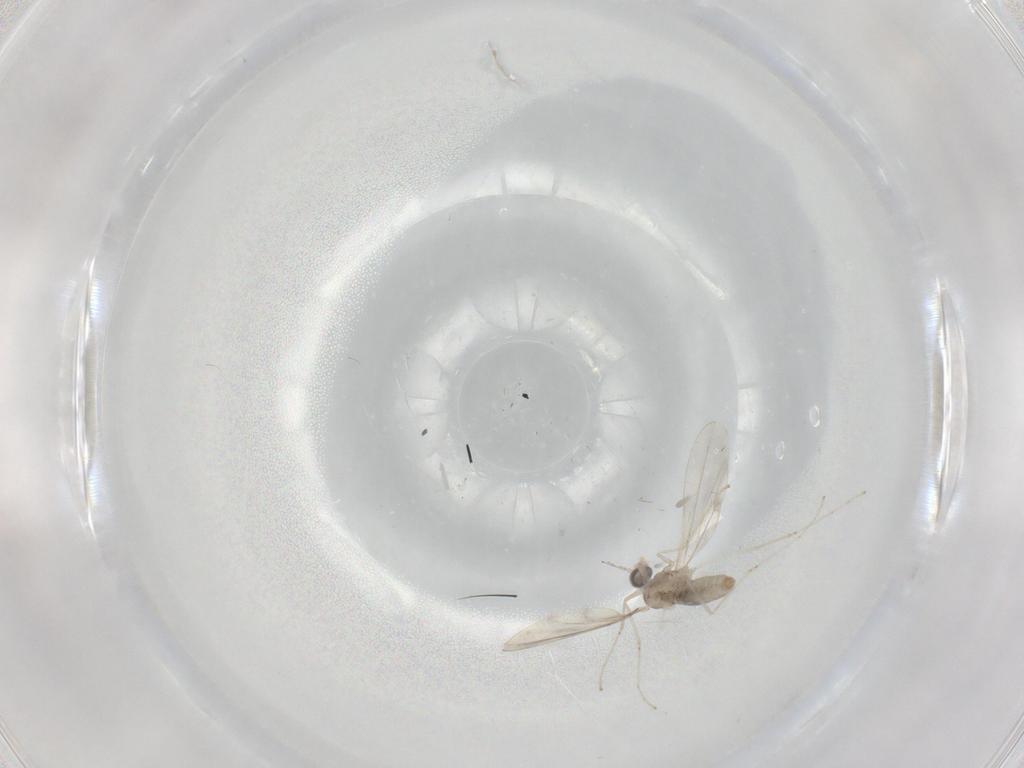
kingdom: Animalia
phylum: Arthropoda
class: Insecta
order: Diptera
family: Cecidomyiidae
